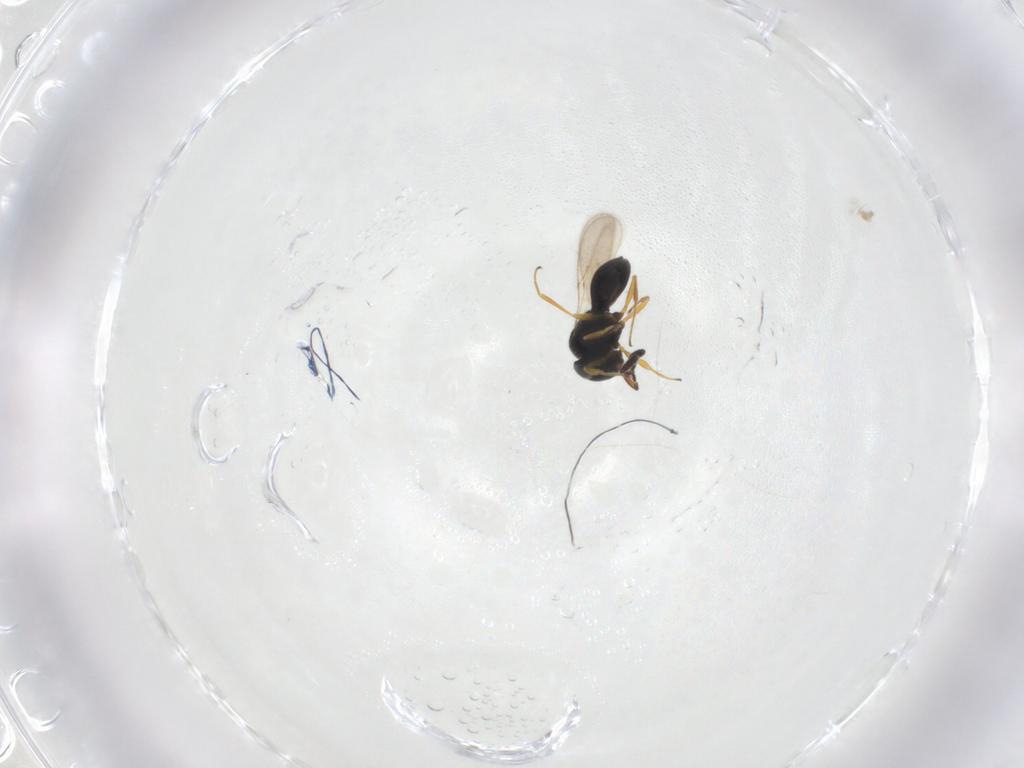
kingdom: Animalia
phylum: Arthropoda
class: Insecta
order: Hymenoptera
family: Scelionidae
